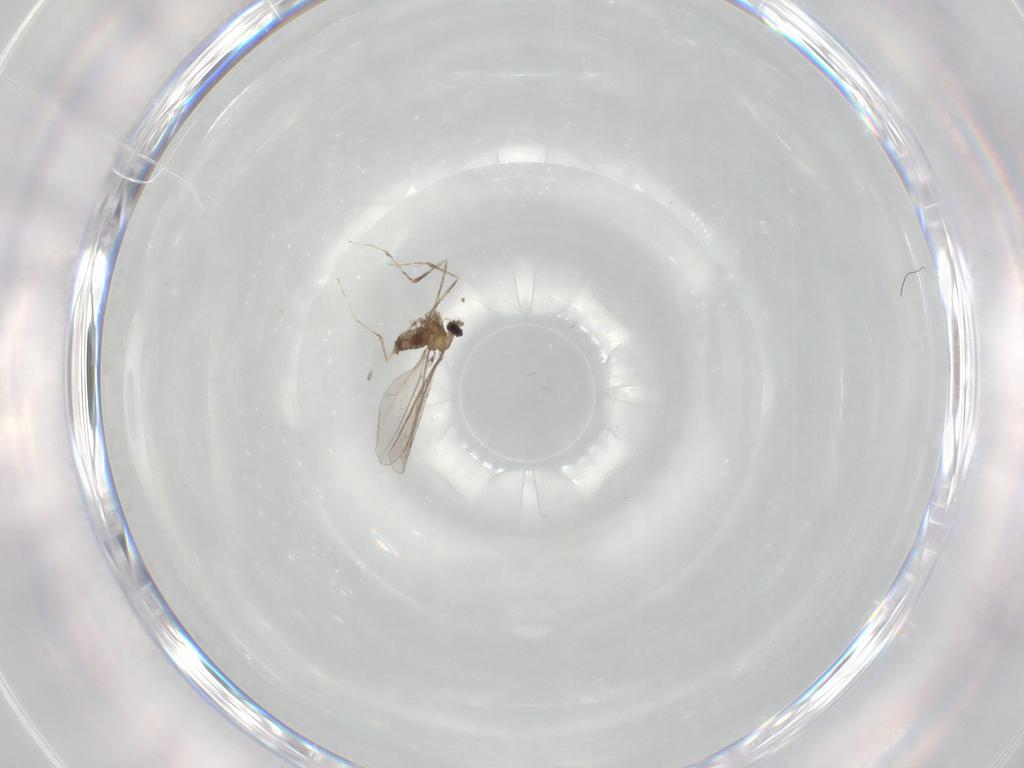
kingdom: Animalia
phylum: Arthropoda
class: Insecta
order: Diptera
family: Cecidomyiidae
